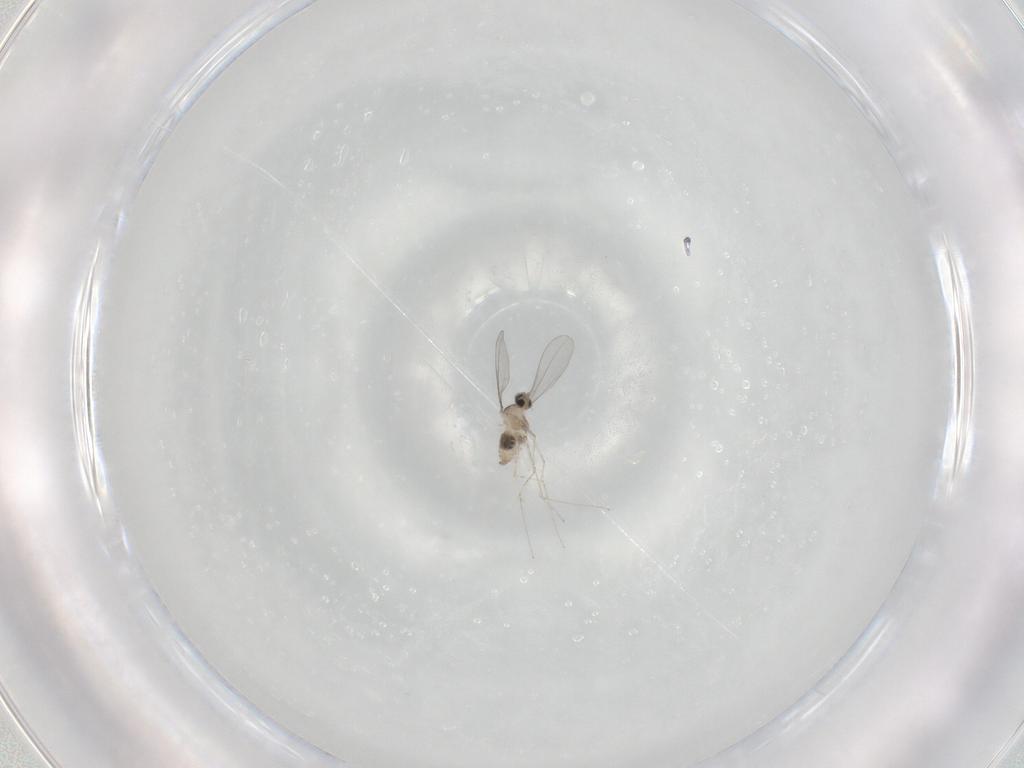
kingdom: Animalia
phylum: Arthropoda
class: Insecta
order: Diptera
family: Cecidomyiidae
